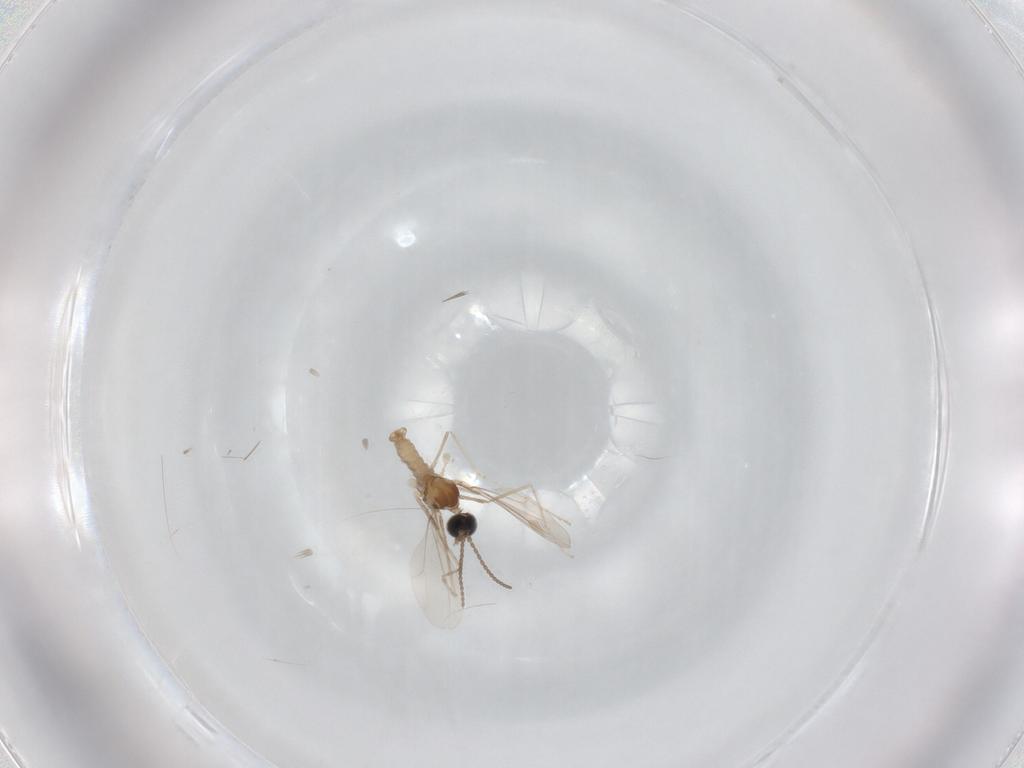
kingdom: Animalia
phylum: Arthropoda
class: Insecta
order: Diptera
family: Cecidomyiidae
